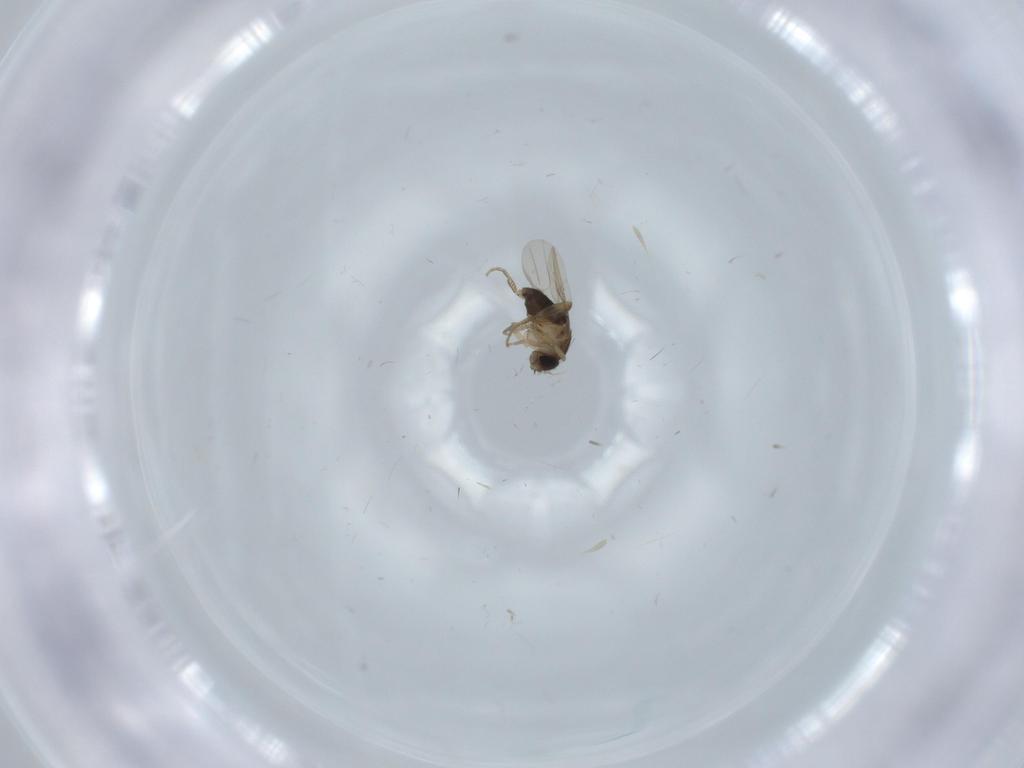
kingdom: Animalia
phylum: Arthropoda
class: Insecta
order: Diptera
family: Phoridae
